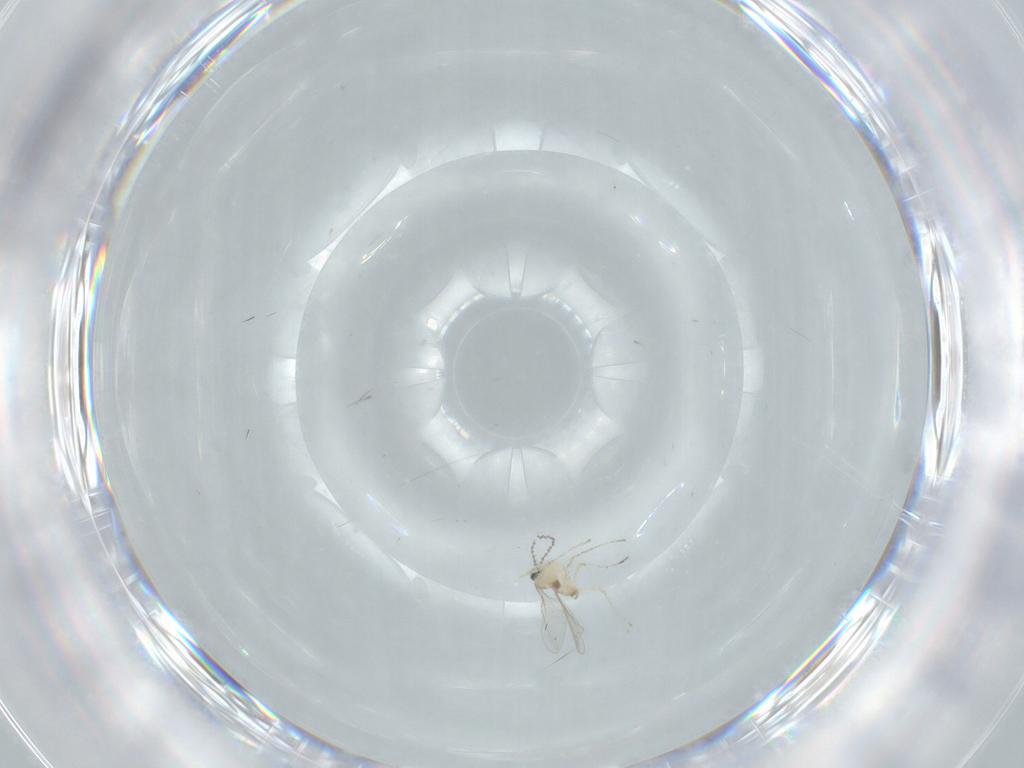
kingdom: Animalia
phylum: Arthropoda
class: Insecta
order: Diptera
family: Cecidomyiidae
